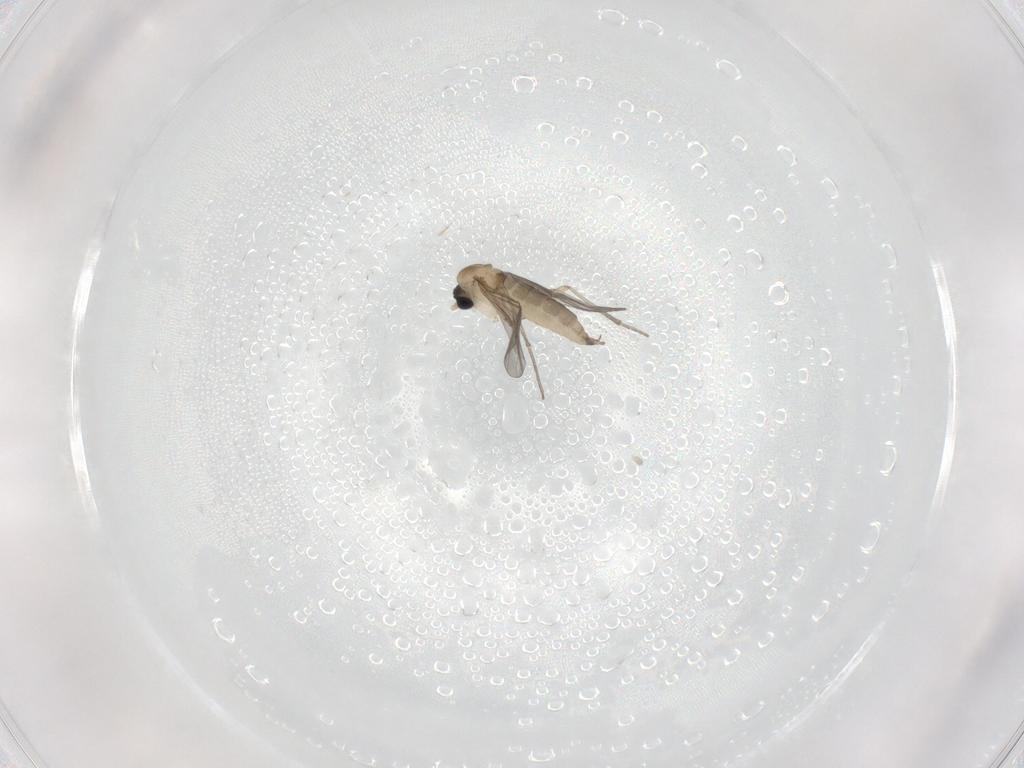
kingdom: Animalia
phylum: Arthropoda
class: Insecta
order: Diptera
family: Sciaridae
